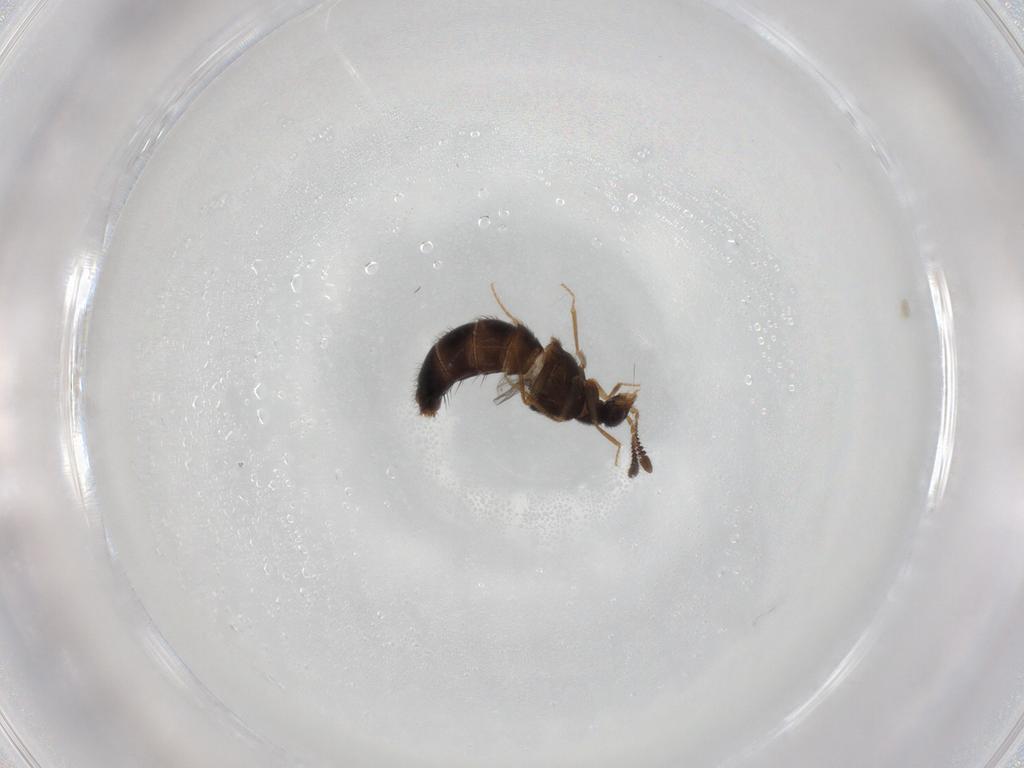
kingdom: Animalia
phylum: Arthropoda
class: Insecta
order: Coleoptera
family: Staphylinidae
